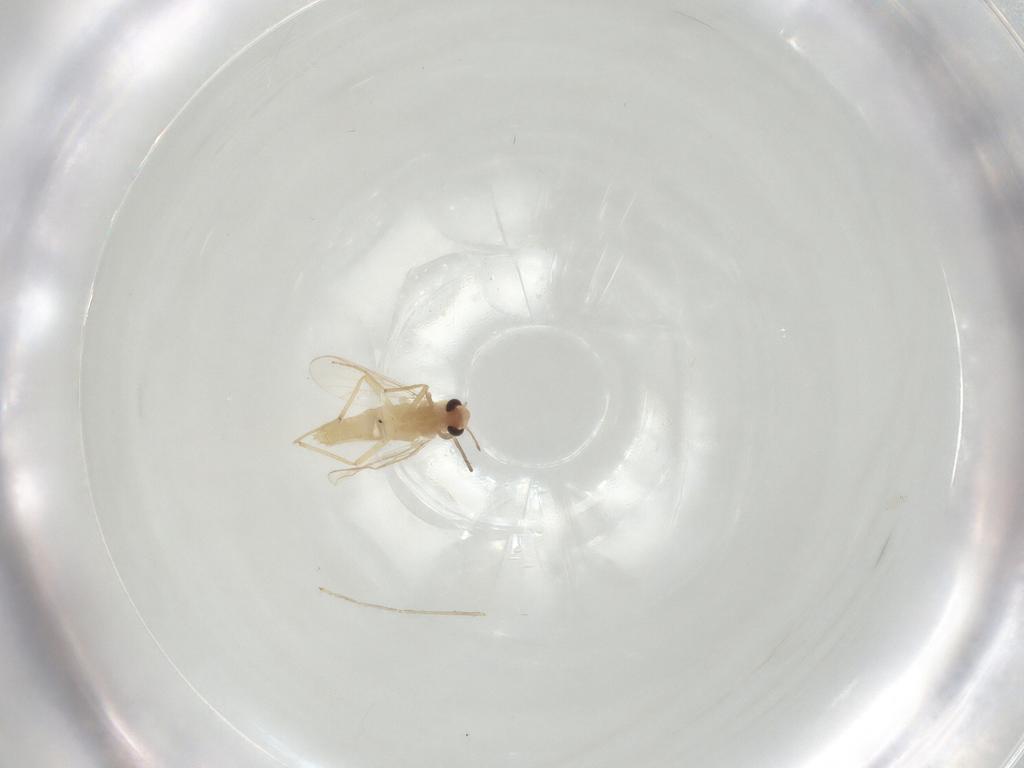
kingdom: Animalia
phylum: Arthropoda
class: Insecta
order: Diptera
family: Chironomidae
